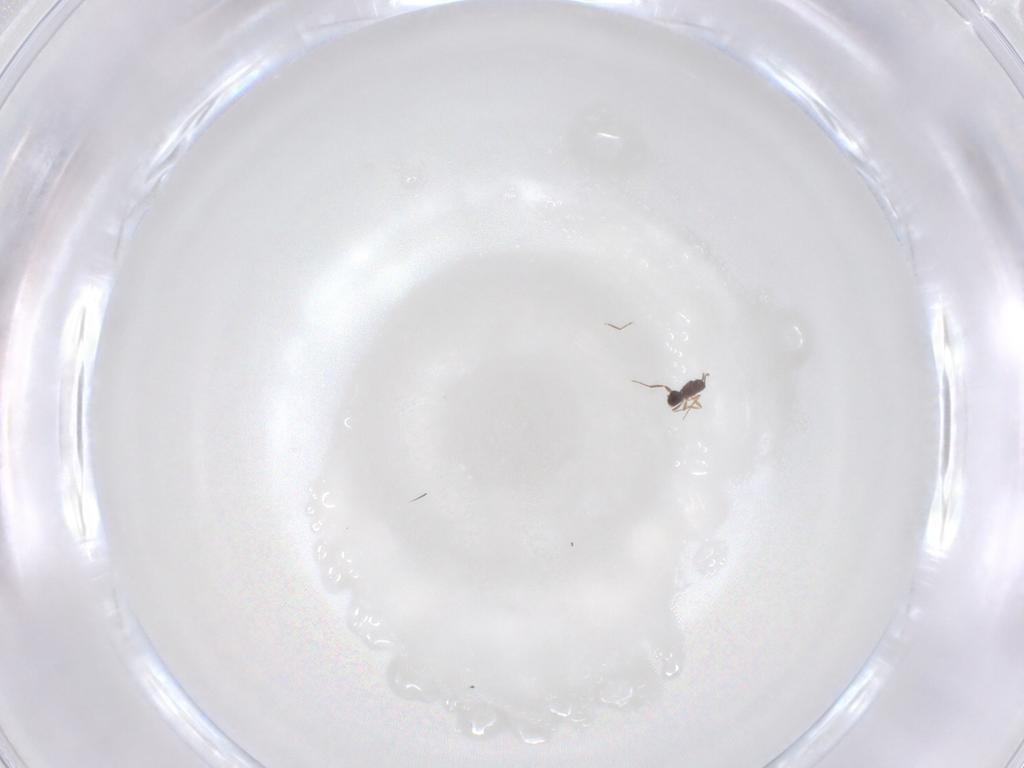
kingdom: Animalia
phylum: Arthropoda
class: Insecta
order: Hymenoptera
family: Mymaridae
